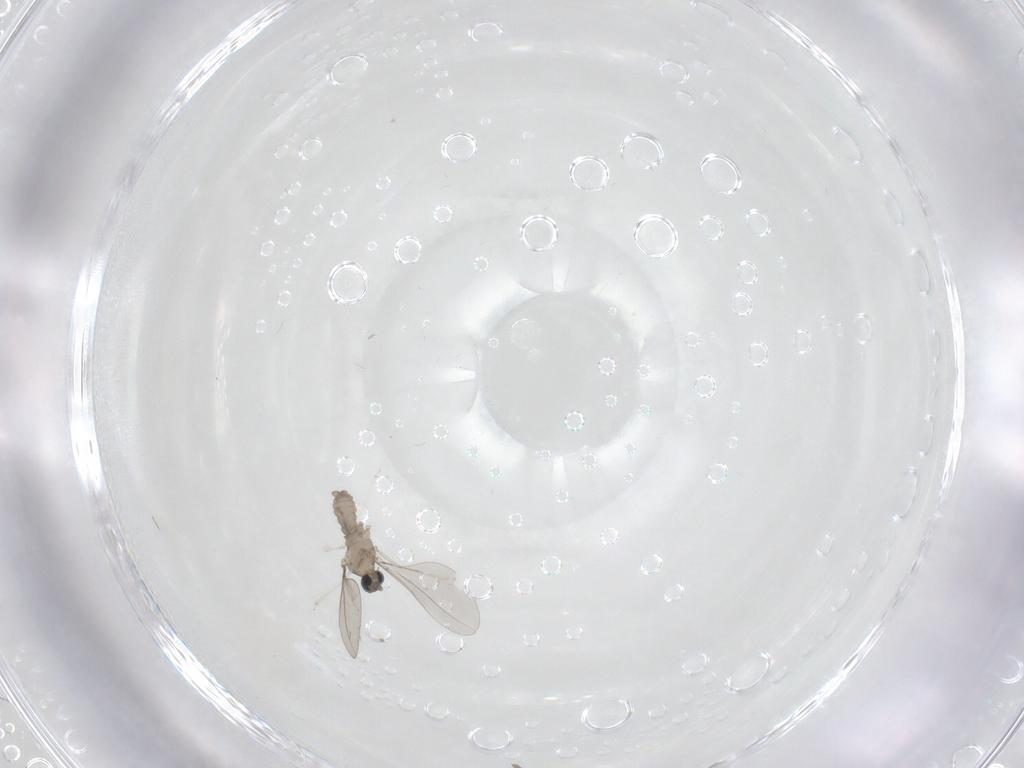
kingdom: Animalia
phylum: Arthropoda
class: Insecta
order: Diptera
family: Cecidomyiidae
